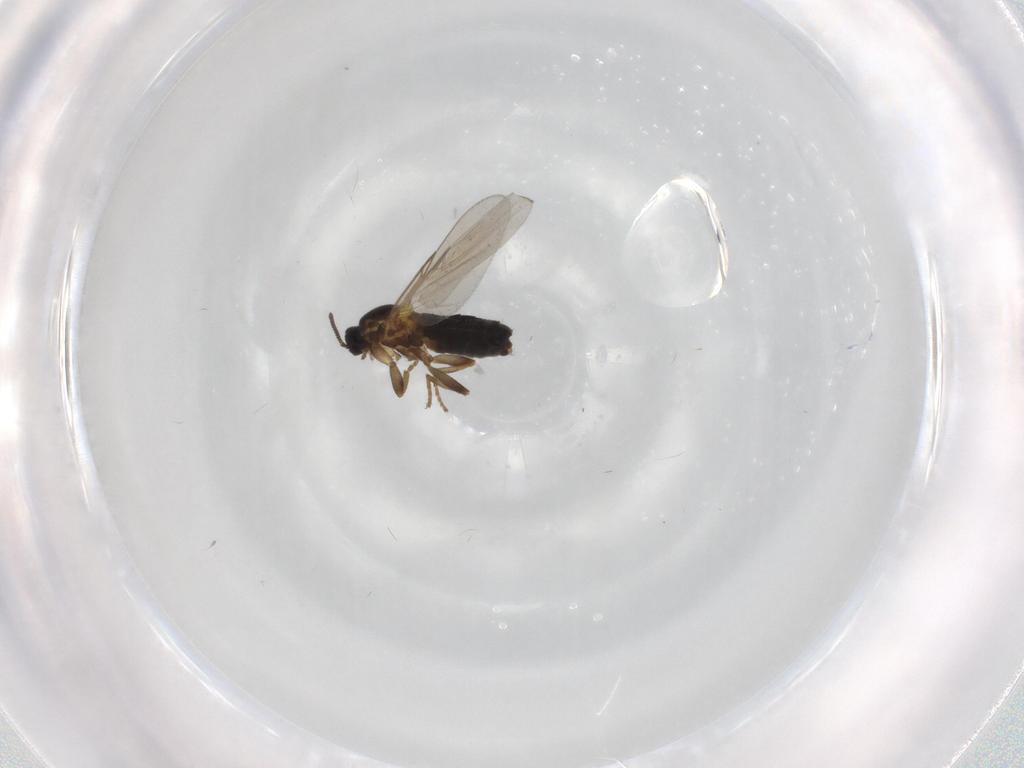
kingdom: Animalia
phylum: Arthropoda
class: Insecta
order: Diptera
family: Scatopsidae
